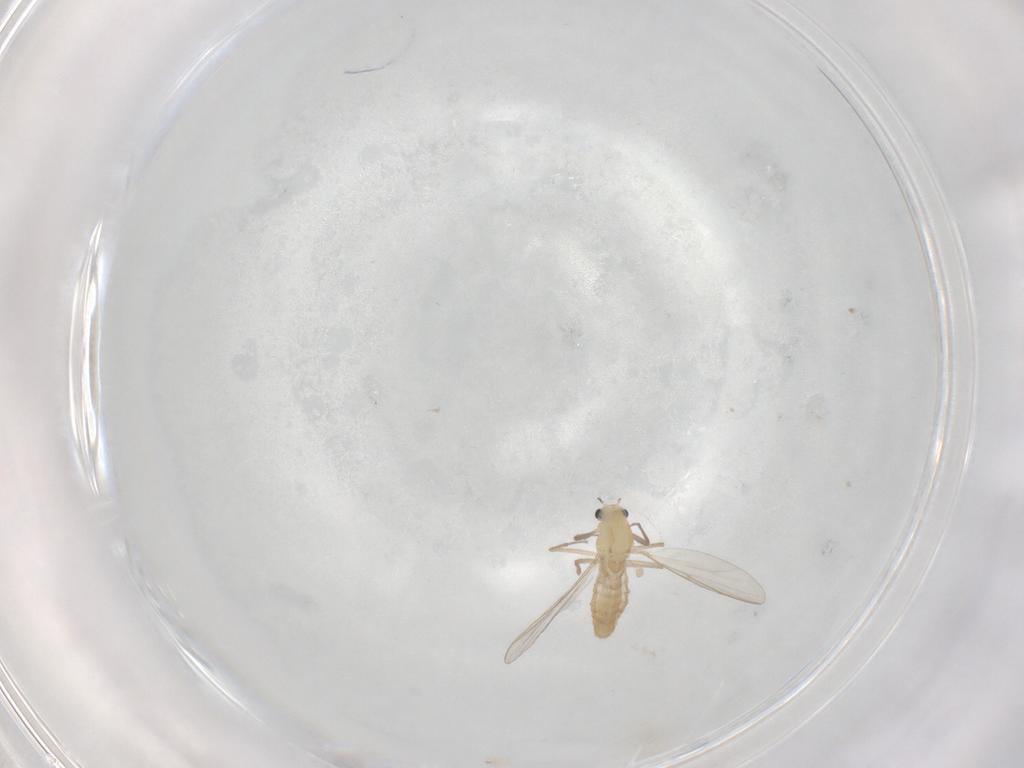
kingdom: Animalia
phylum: Arthropoda
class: Insecta
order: Diptera
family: Chironomidae
